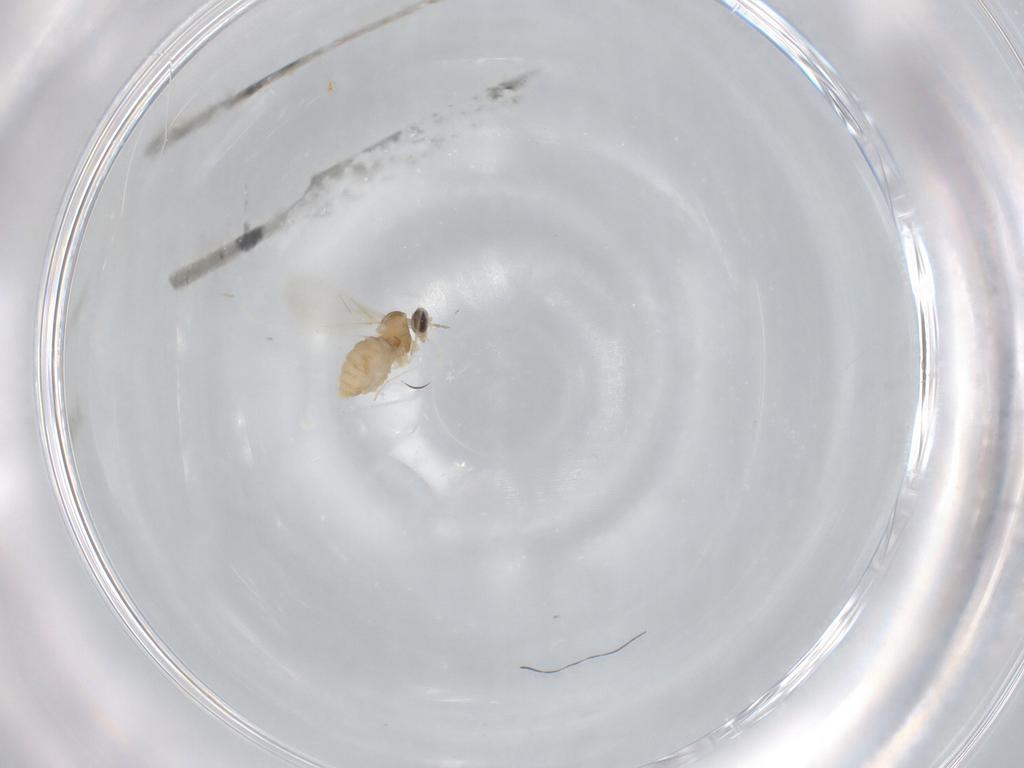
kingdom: Animalia
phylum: Arthropoda
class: Insecta
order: Diptera
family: Cecidomyiidae
